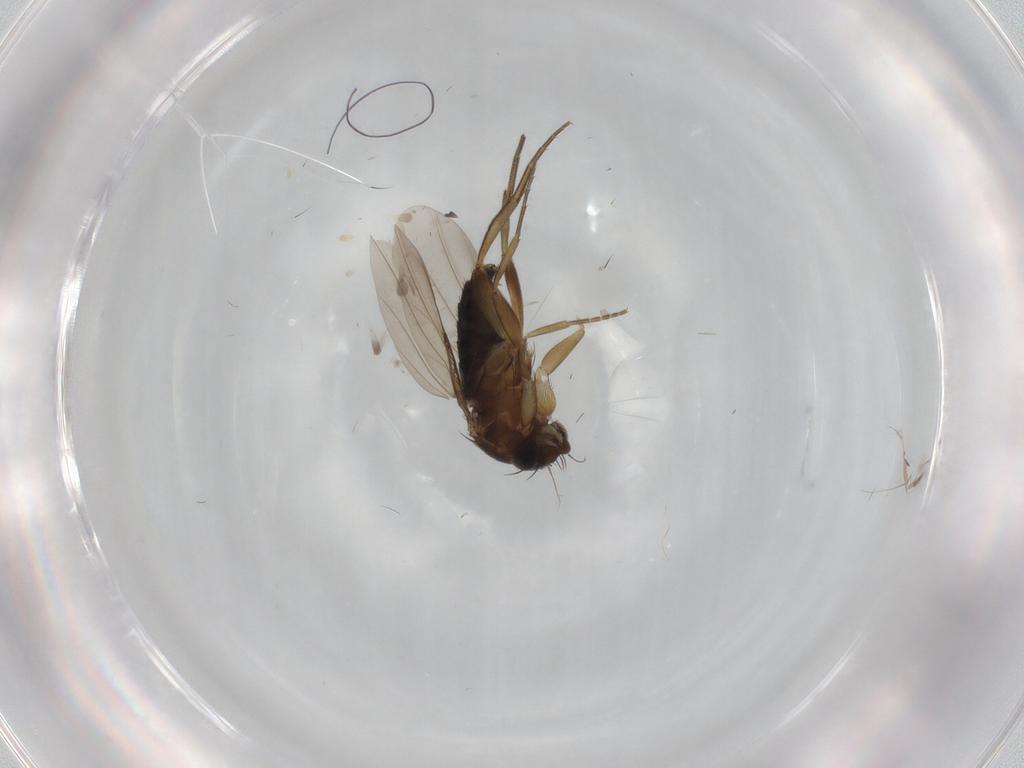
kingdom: Animalia
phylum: Arthropoda
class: Insecta
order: Diptera
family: Phoridae
